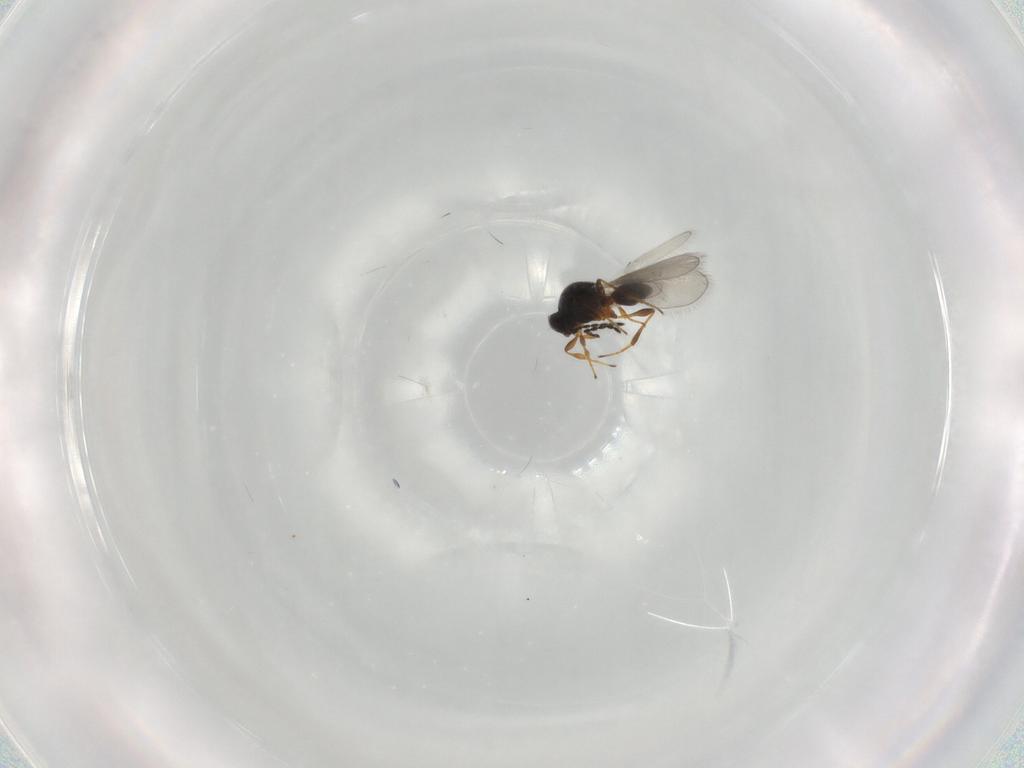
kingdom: Animalia
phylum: Arthropoda
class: Insecta
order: Hymenoptera
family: Platygastridae
